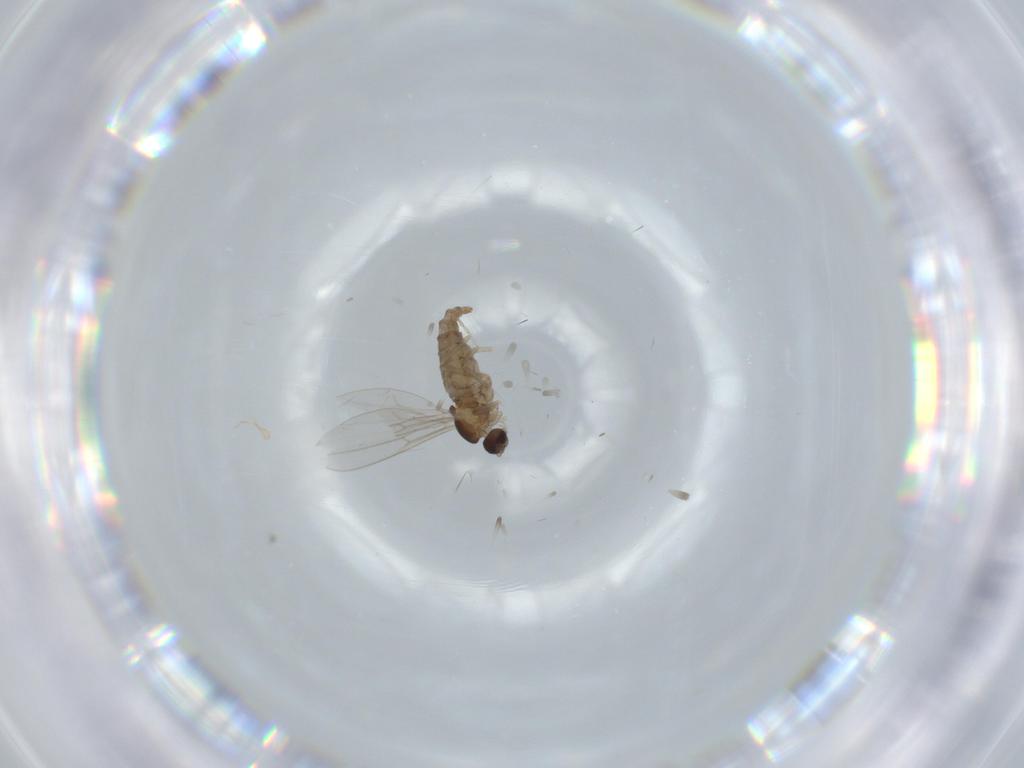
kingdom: Animalia
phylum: Arthropoda
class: Insecta
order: Diptera
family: Cecidomyiidae
